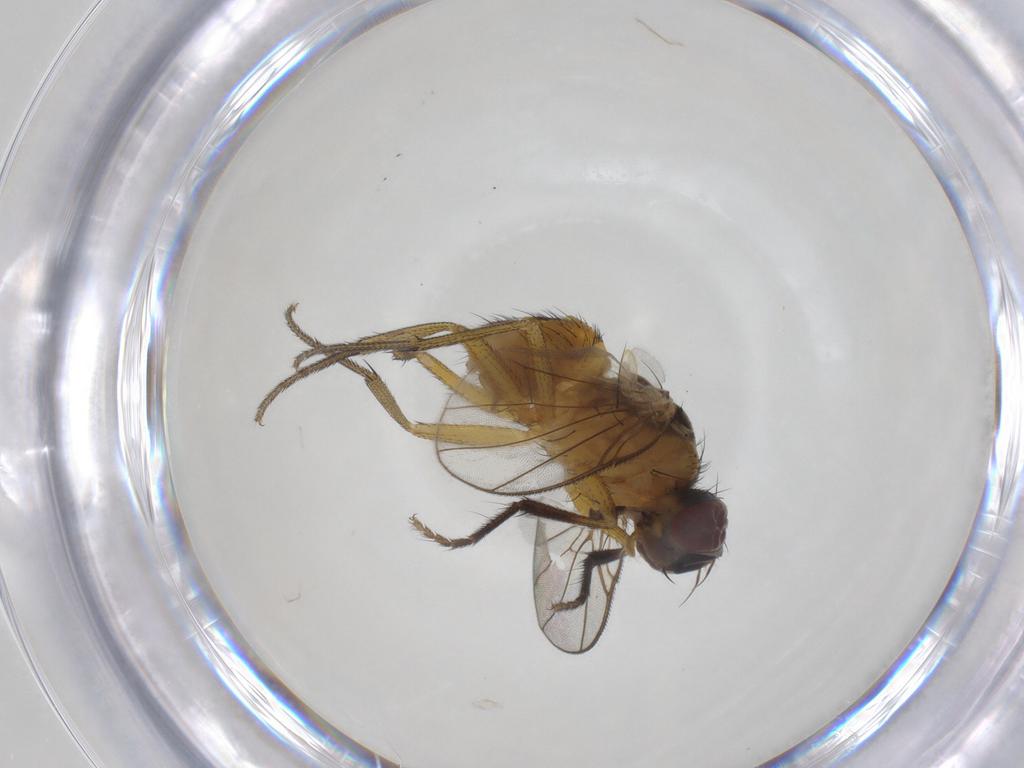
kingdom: Animalia
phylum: Arthropoda
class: Insecta
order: Diptera
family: Muscidae
